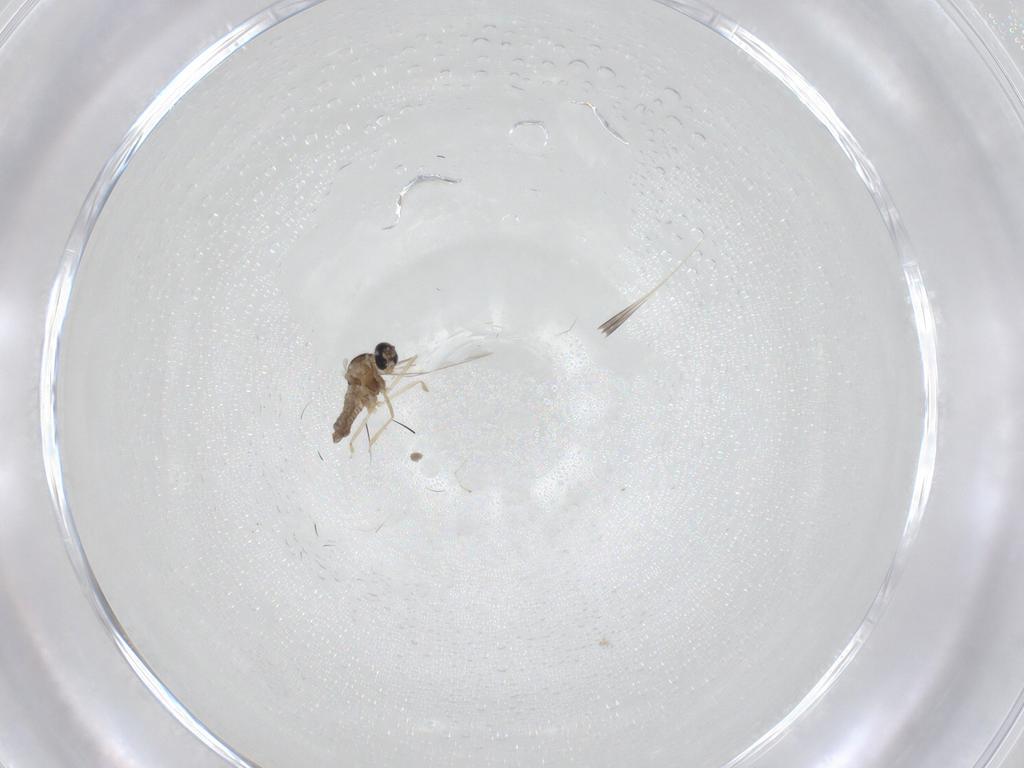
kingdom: Animalia
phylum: Arthropoda
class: Insecta
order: Diptera
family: Cecidomyiidae
